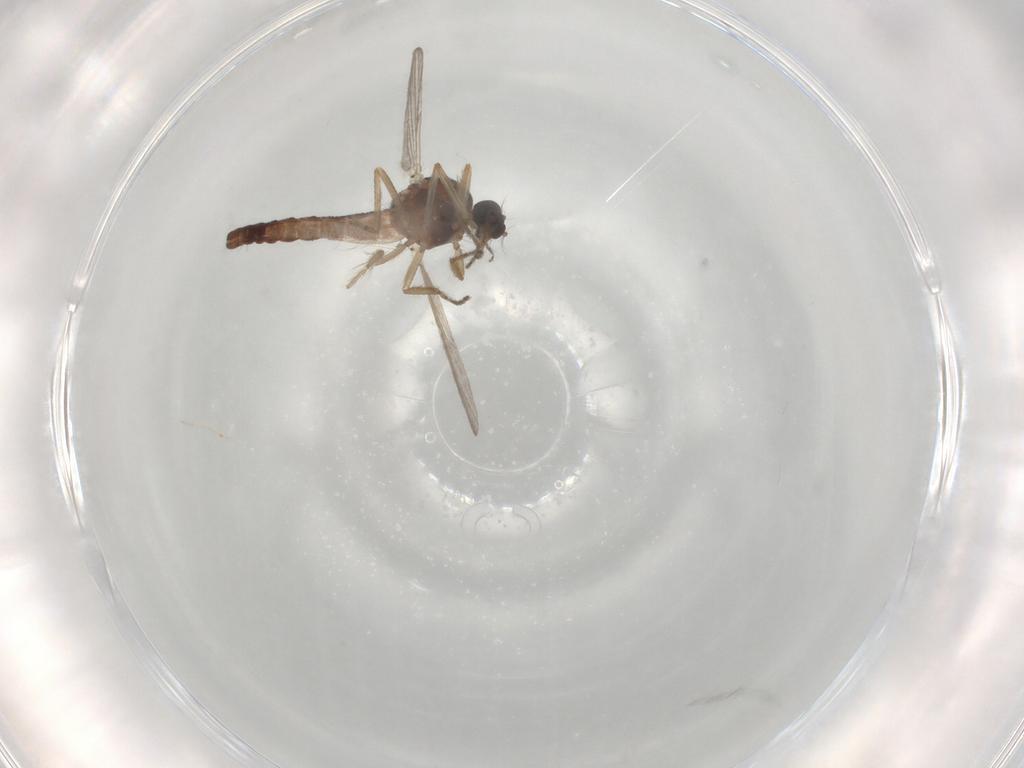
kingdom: Animalia
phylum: Arthropoda
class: Insecta
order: Diptera
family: Ceratopogonidae
